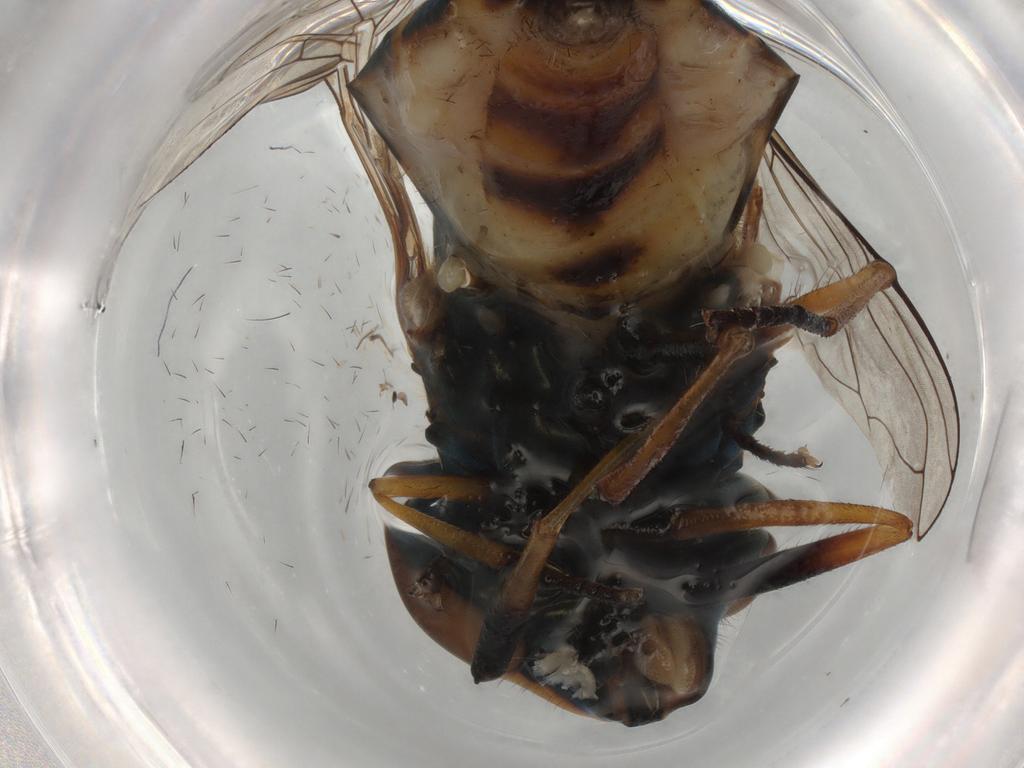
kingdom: Animalia
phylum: Arthropoda
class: Insecta
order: Diptera
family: Syrphidae
